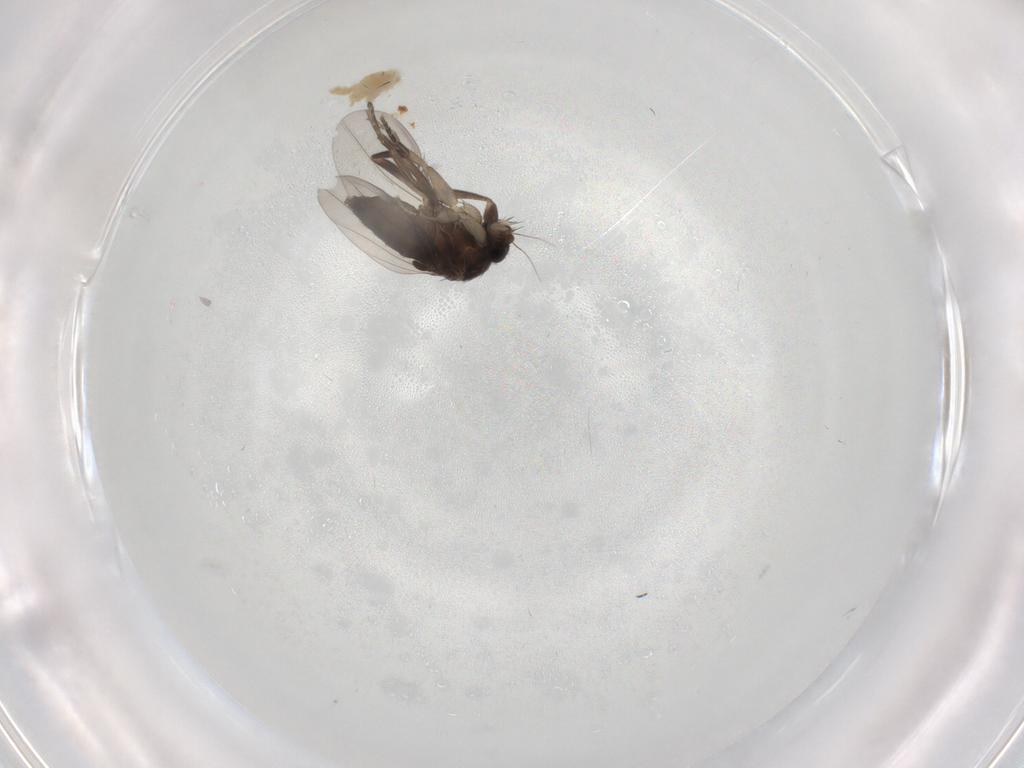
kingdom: Animalia
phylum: Arthropoda
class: Insecta
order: Diptera
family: Phoridae
